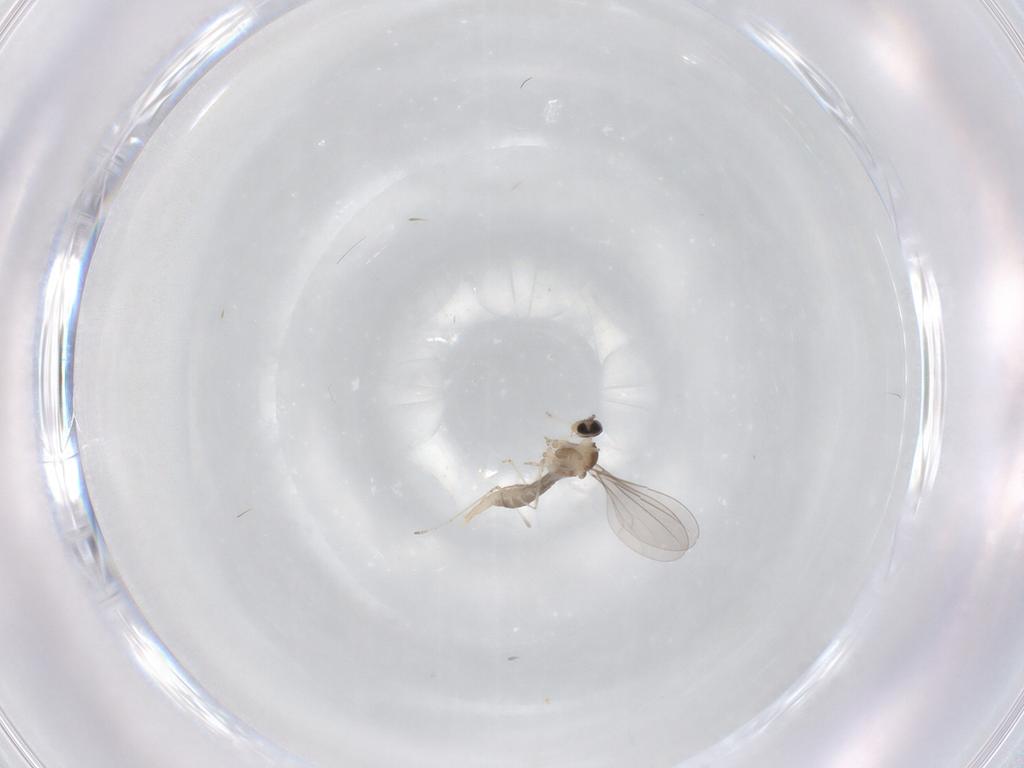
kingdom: Animalia
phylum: Arthropoda
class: Insecta
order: Diptera
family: Cecidomyiidae
